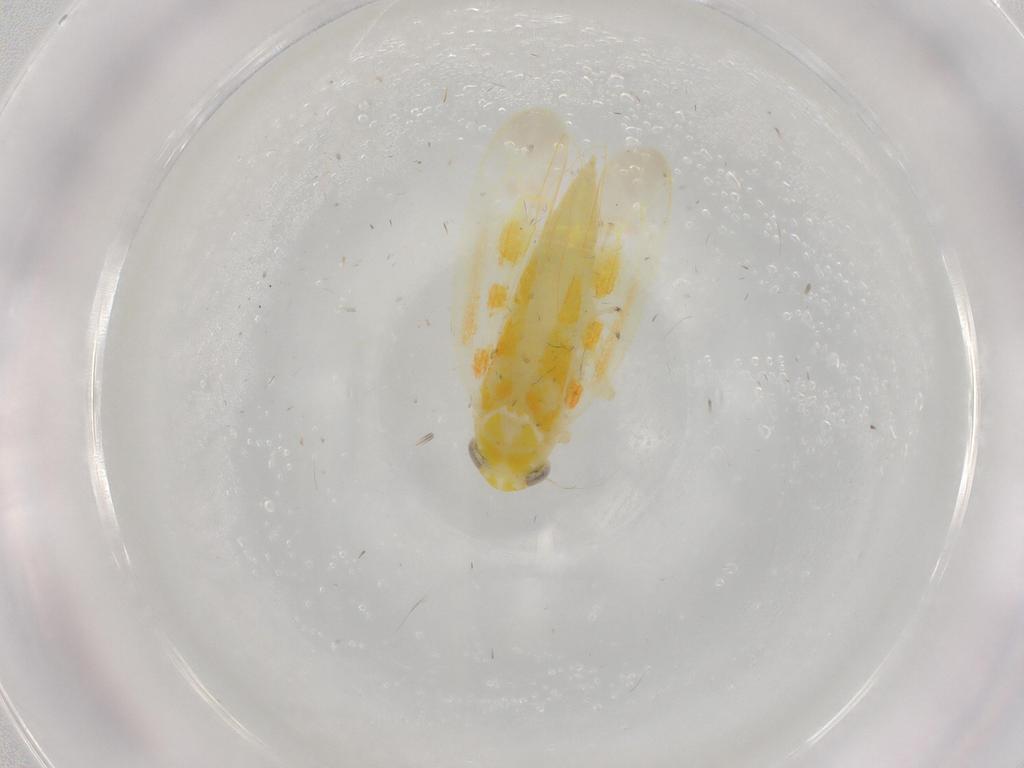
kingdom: Animalia
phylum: Arthropoda
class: Insecta
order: Hemiptera
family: Cicadellidae
